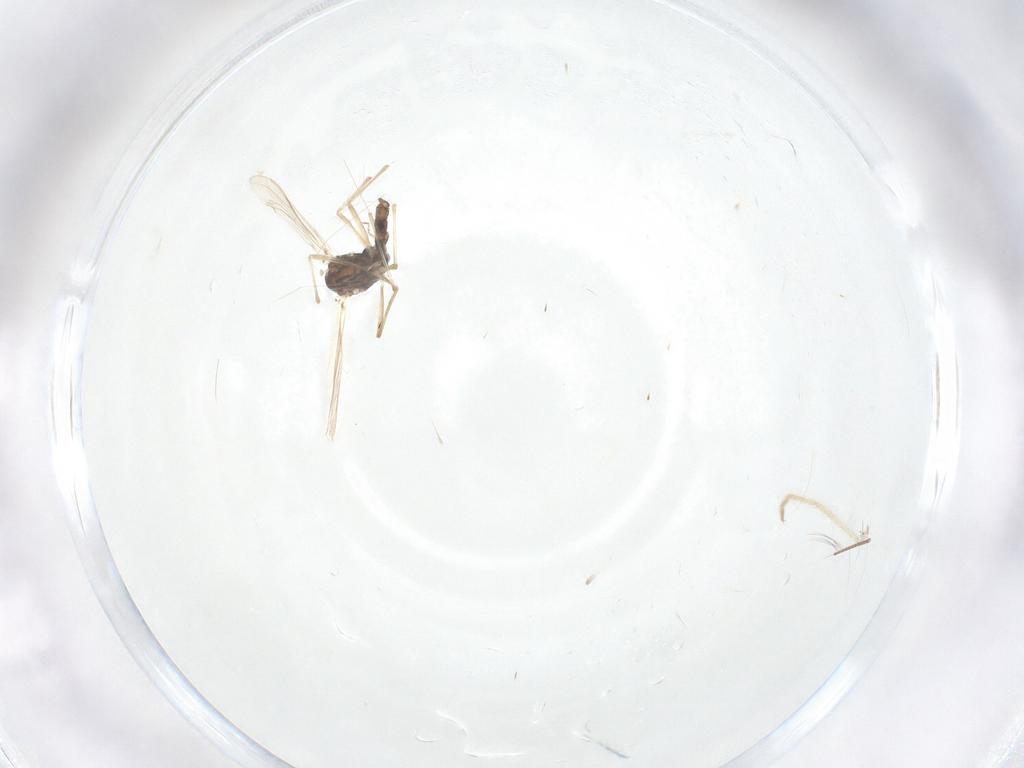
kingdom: Animalia
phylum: Arthropoda
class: Insecta
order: Diptera
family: Chironomidae
